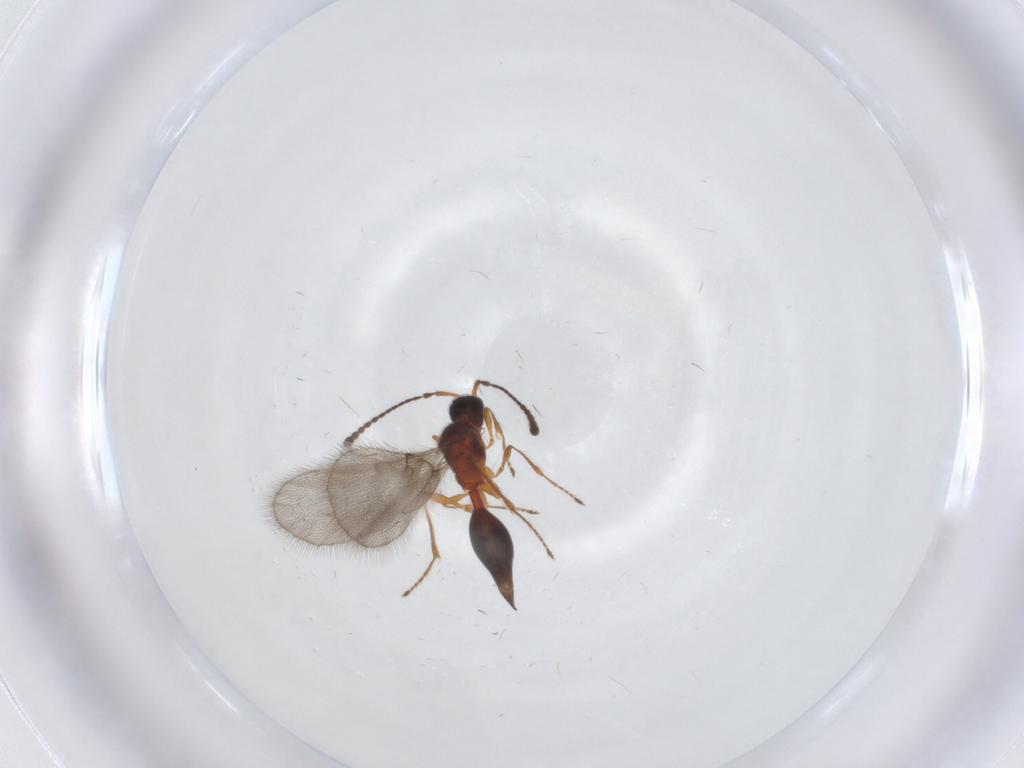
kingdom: Animalia
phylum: Arthropoda
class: Insecta
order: Hymenoptera
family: Diapriidae
